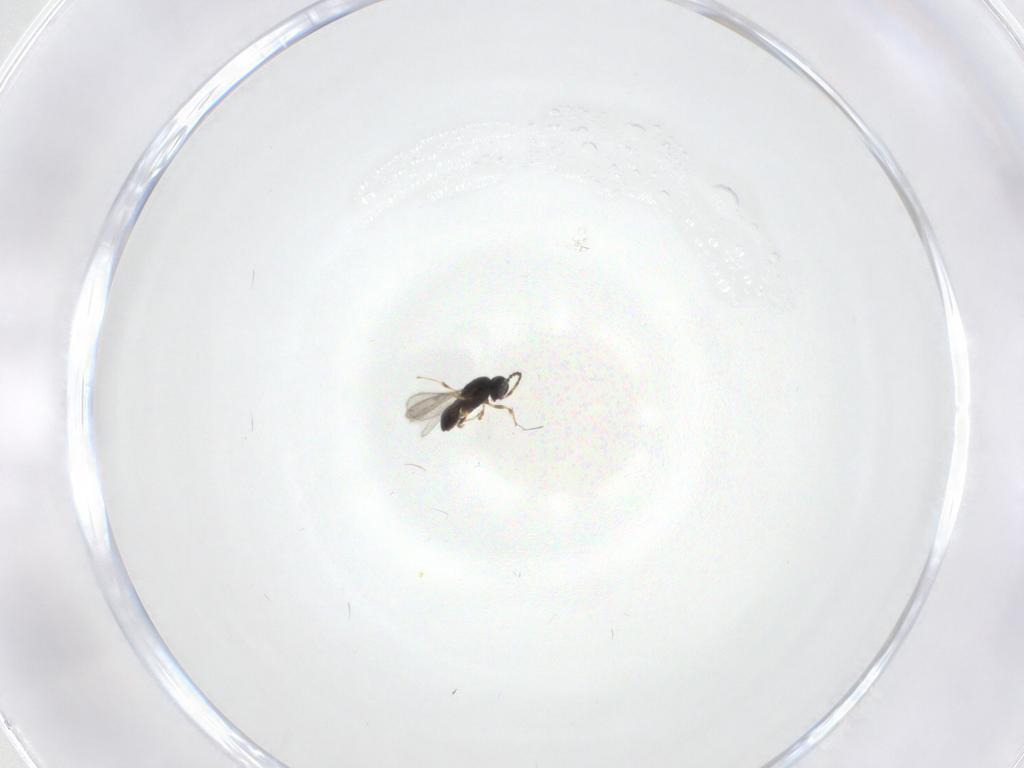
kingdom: Animalia
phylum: Arthropoda
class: Insecta
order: Hymenoptera
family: Scelionidae
